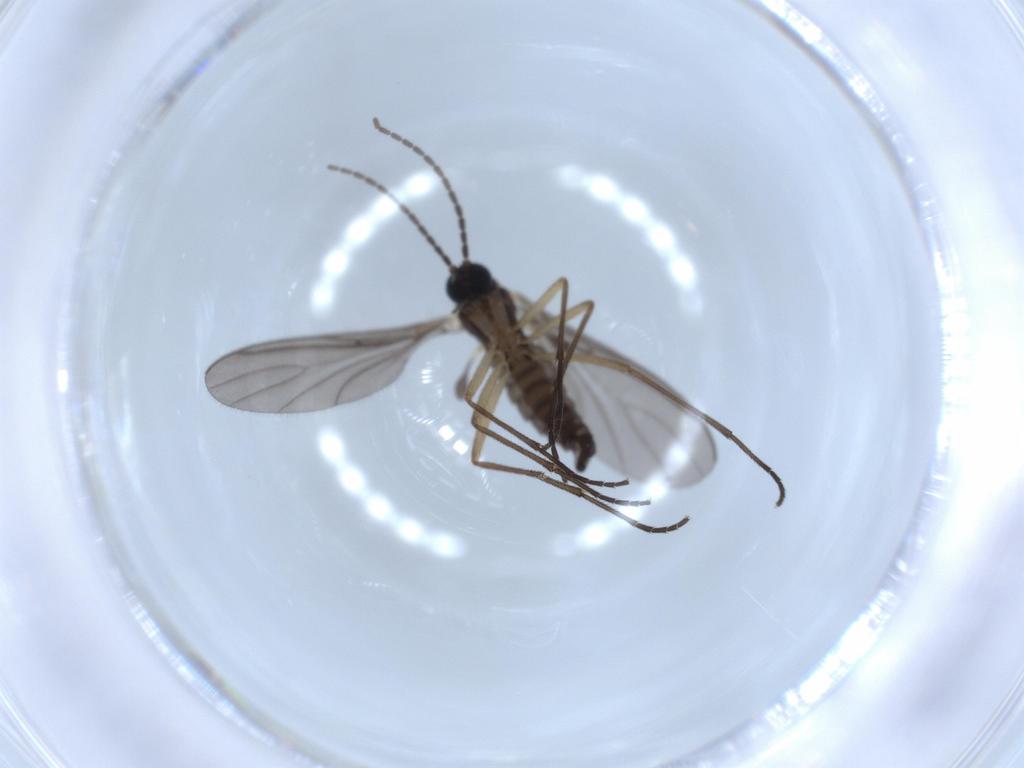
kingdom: Animalia
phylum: Arthropoda
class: Insecta
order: Diptera
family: Sciaridae
